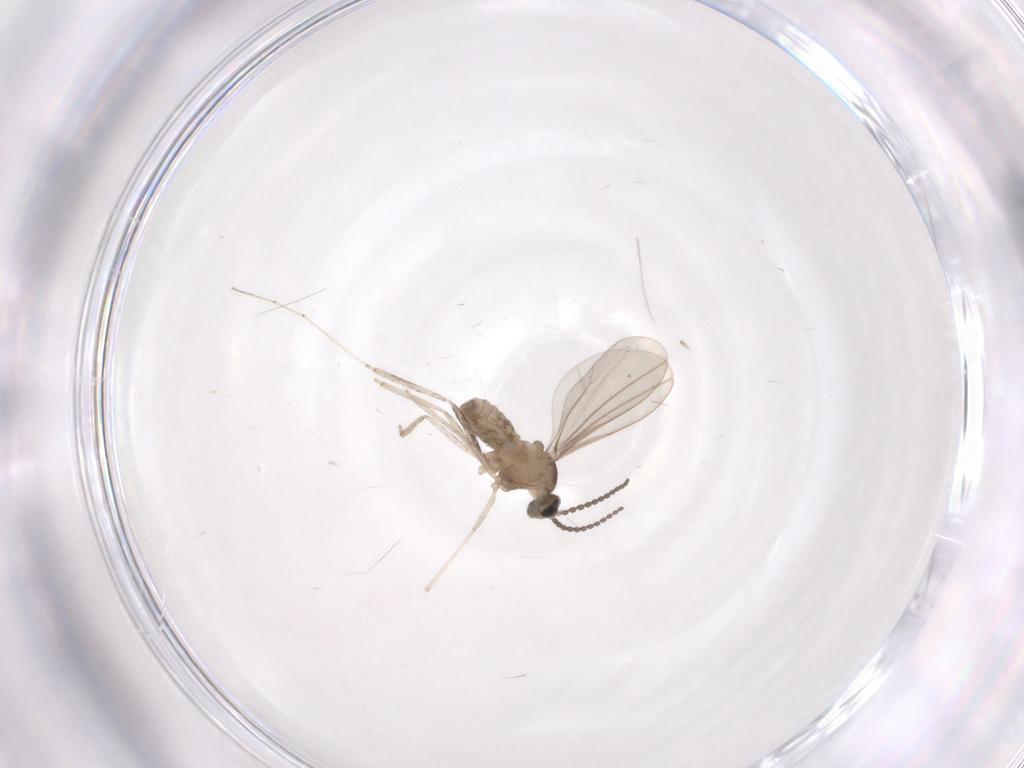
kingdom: Animalia
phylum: Arthropoda
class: Insecta
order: Diptera
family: Cecidomyiidae
